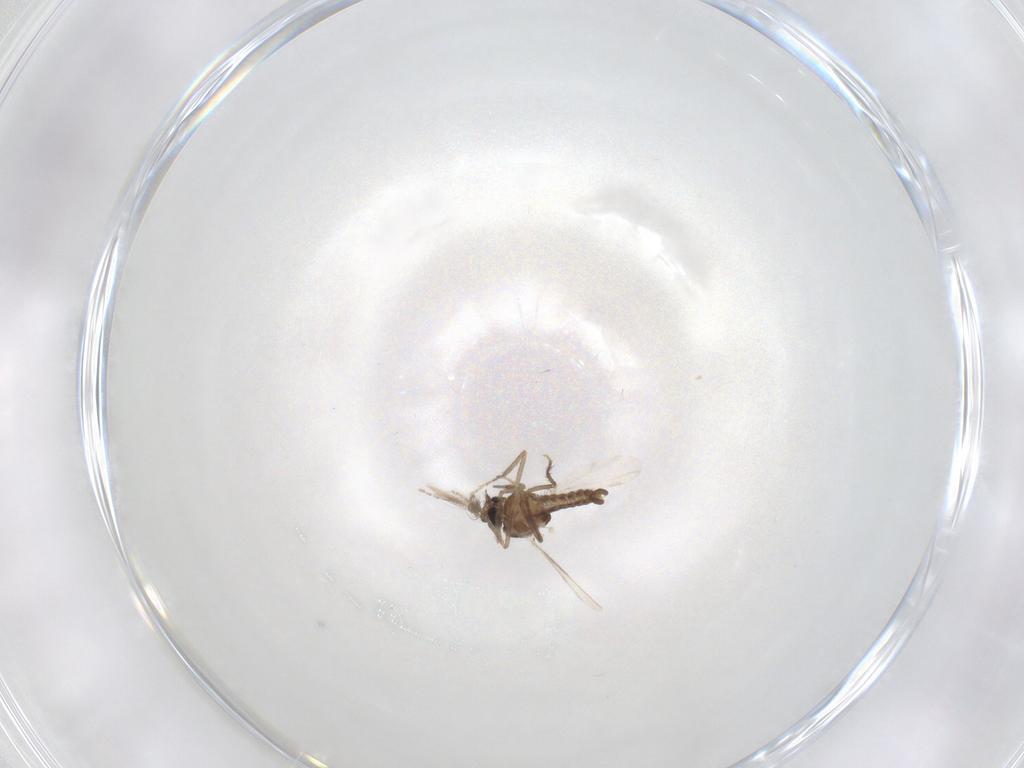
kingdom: Animalia
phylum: Arthropoda
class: Insecta
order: Diptera
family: Ceratopogonidae
